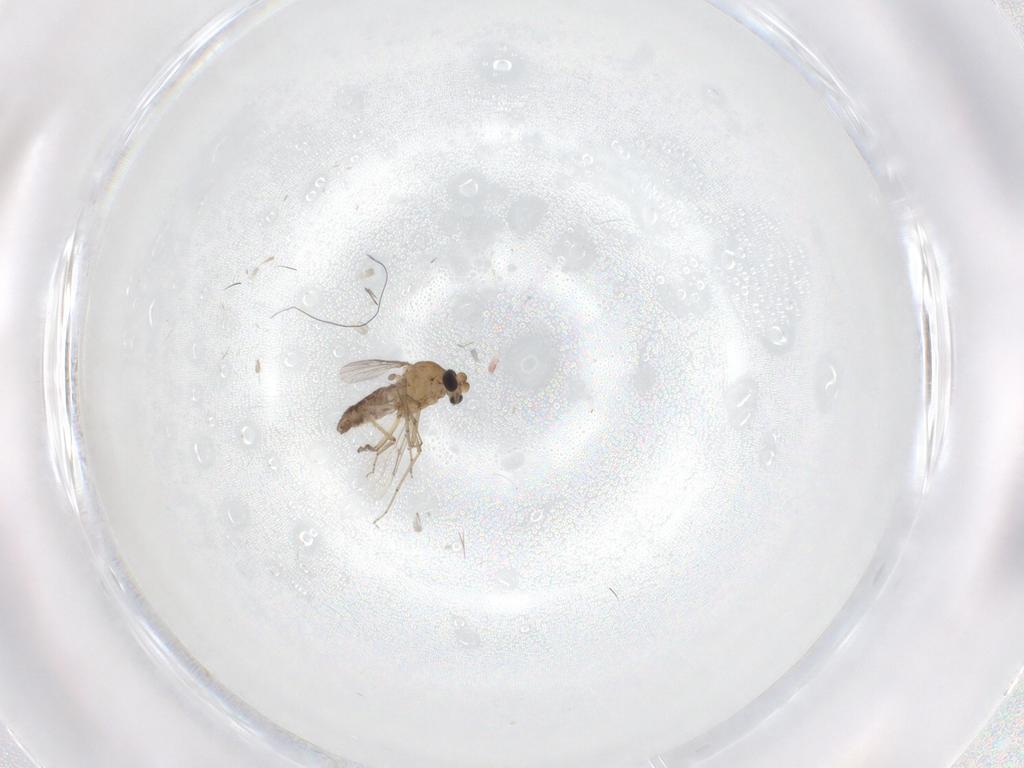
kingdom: Animalia
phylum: Arthropoda
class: Insecta
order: Diptera
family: Ceratopogonidae
